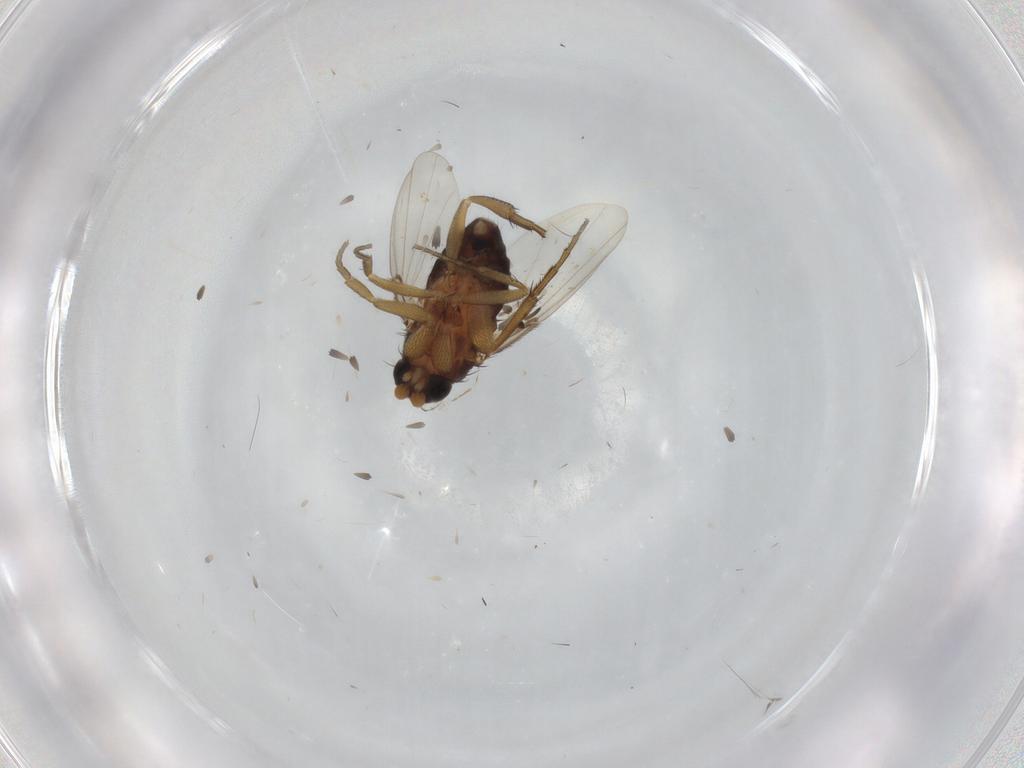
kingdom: Animalia
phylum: Arthropoda
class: Insecta
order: Diptera
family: Phoridae
